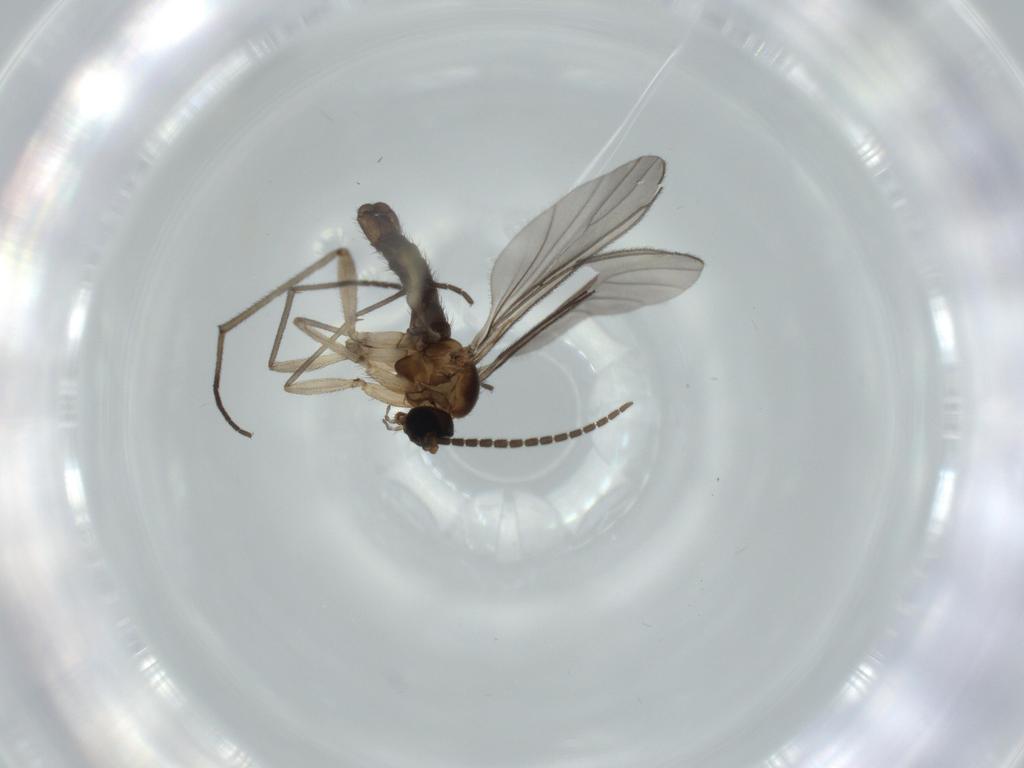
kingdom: Animalia
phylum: Arthropoda
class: Insecta
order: Diptera
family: Sciaridae
